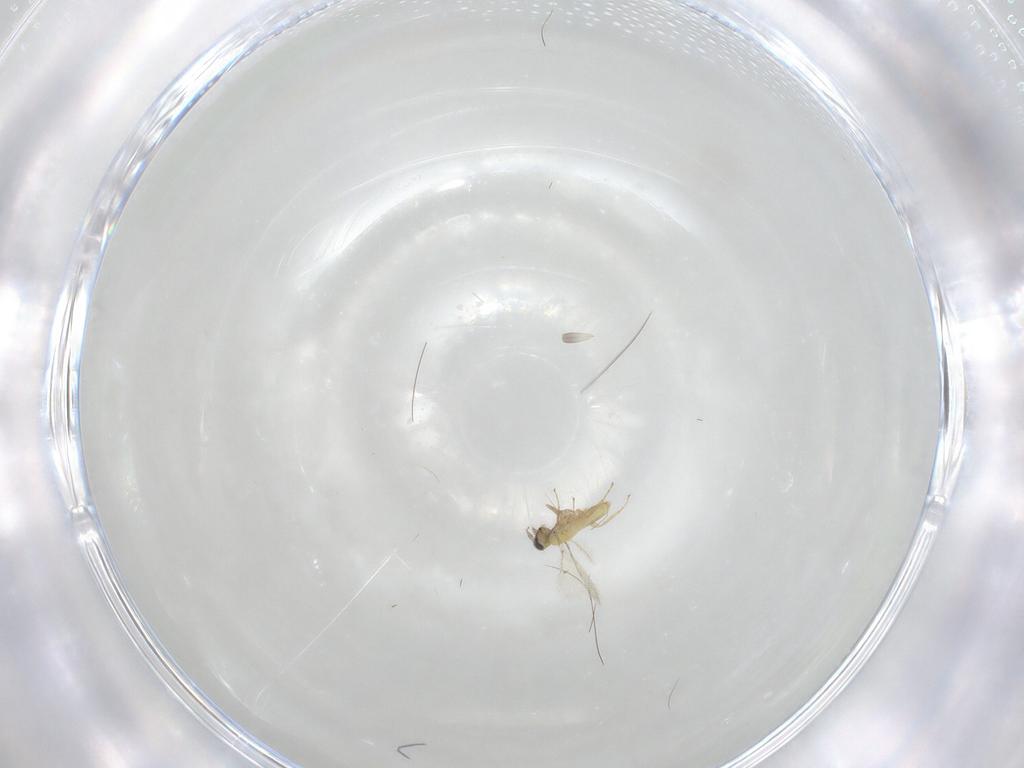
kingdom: Animalia
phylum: Arthropoda
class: Insecta
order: Hymenoptera
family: Trichogrammatidae
